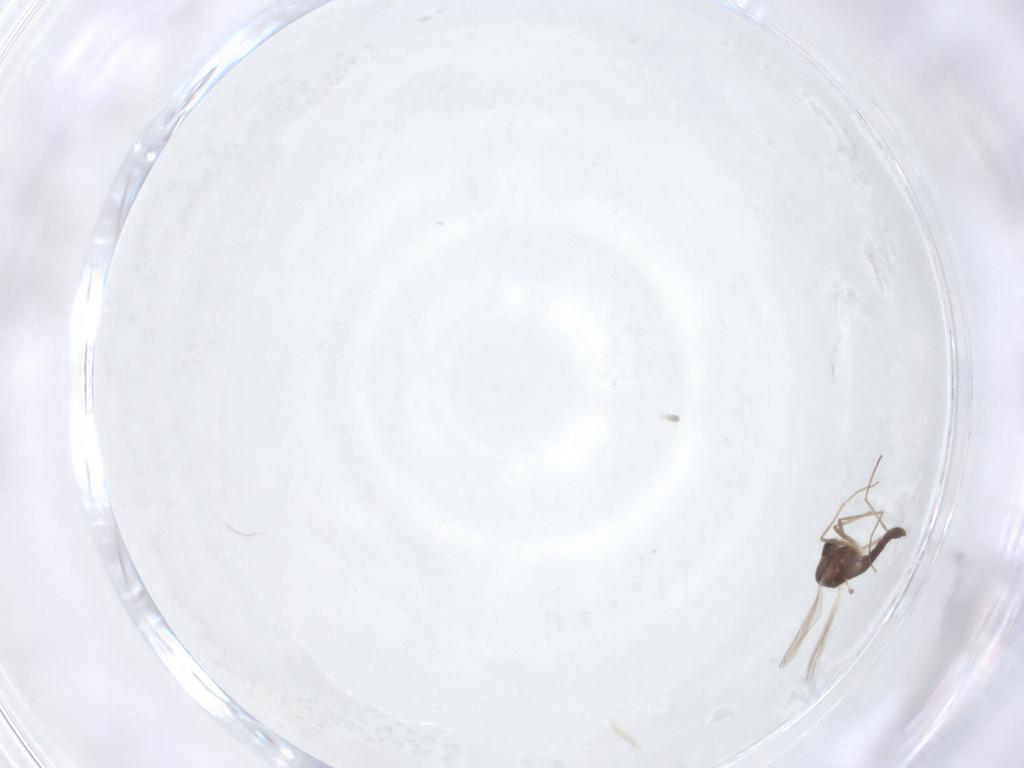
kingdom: Animalia
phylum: Arthropoda
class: Insecta
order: Diptera
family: Chironomidae
